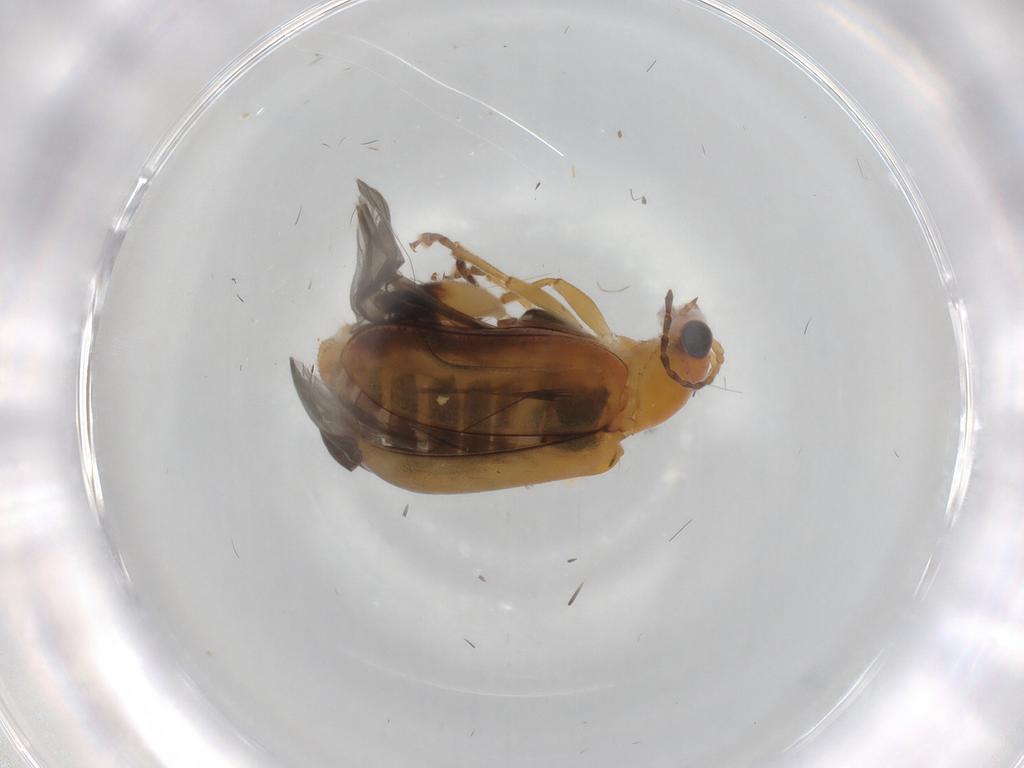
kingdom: Animalia
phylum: Arthropoda
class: Insecta
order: Coleoptera
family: Chrysomelidae
